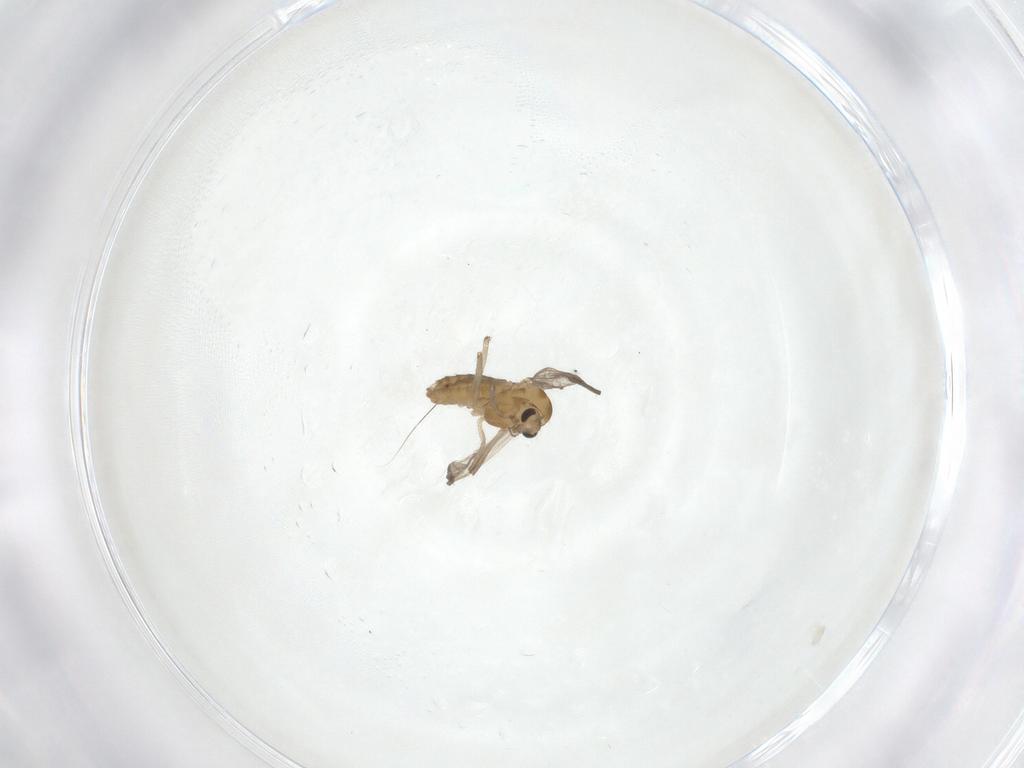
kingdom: Animalia
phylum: Arthropoda
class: Insecta
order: Diptera
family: Chironomidae
